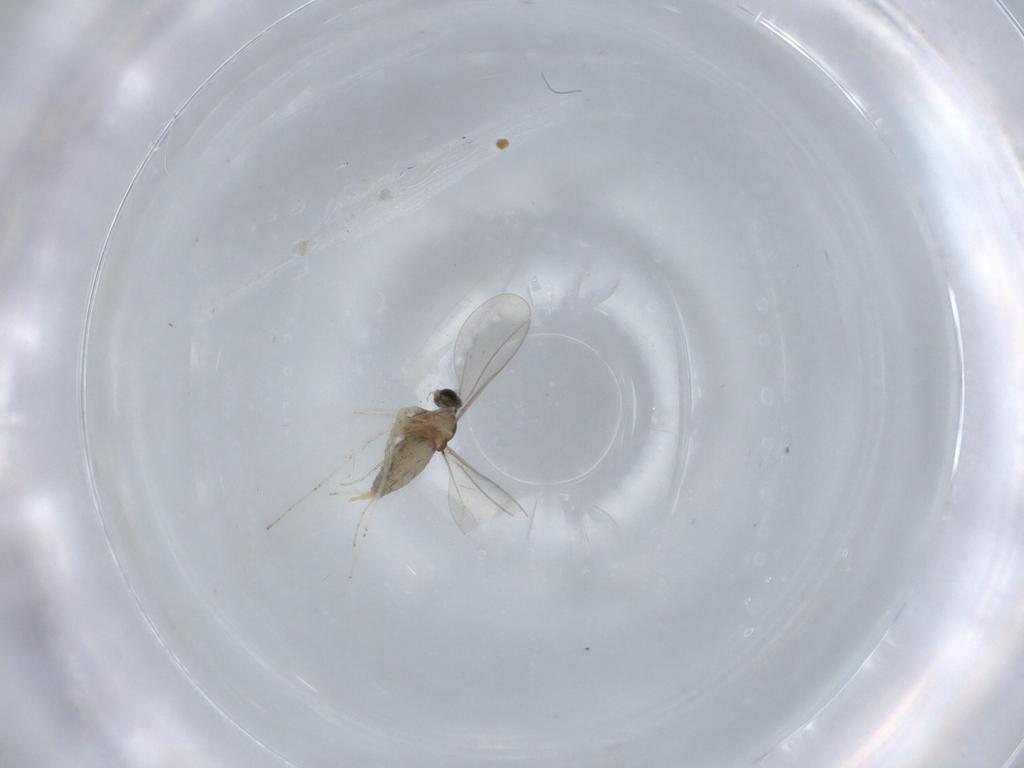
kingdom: Animalia
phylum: Arthropoda
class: Insecta
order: Diptera
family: Cecidomyiidae
